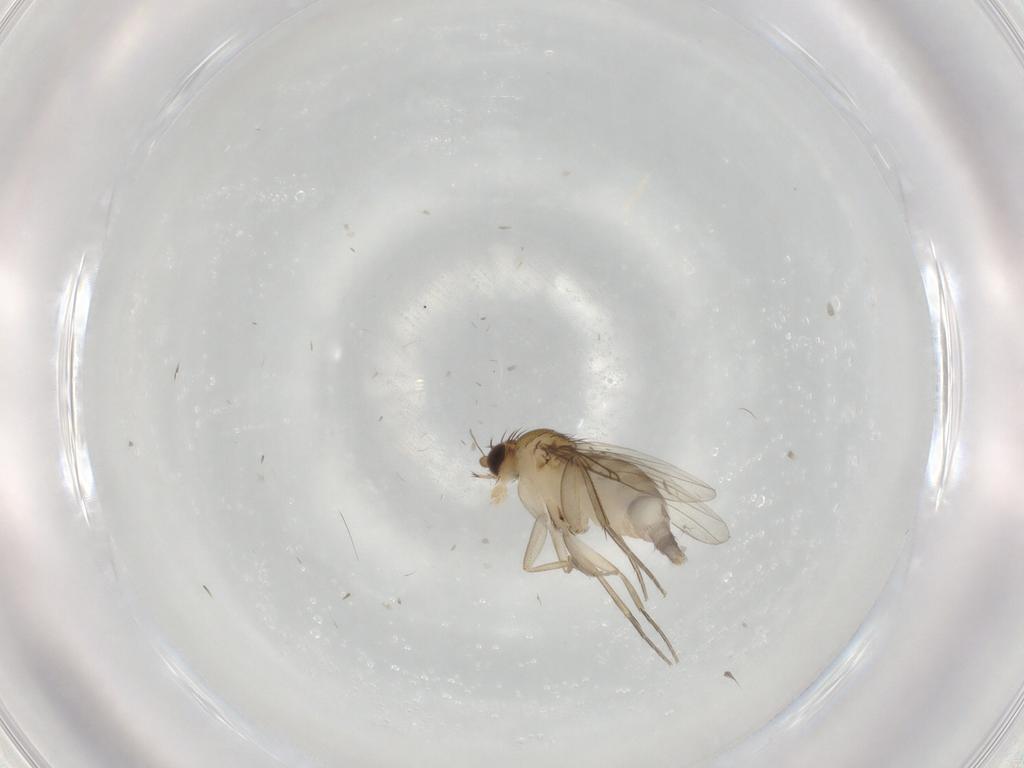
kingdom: Animalia
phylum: Arthropoda
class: Insecta
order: Diptera
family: Phoridae
